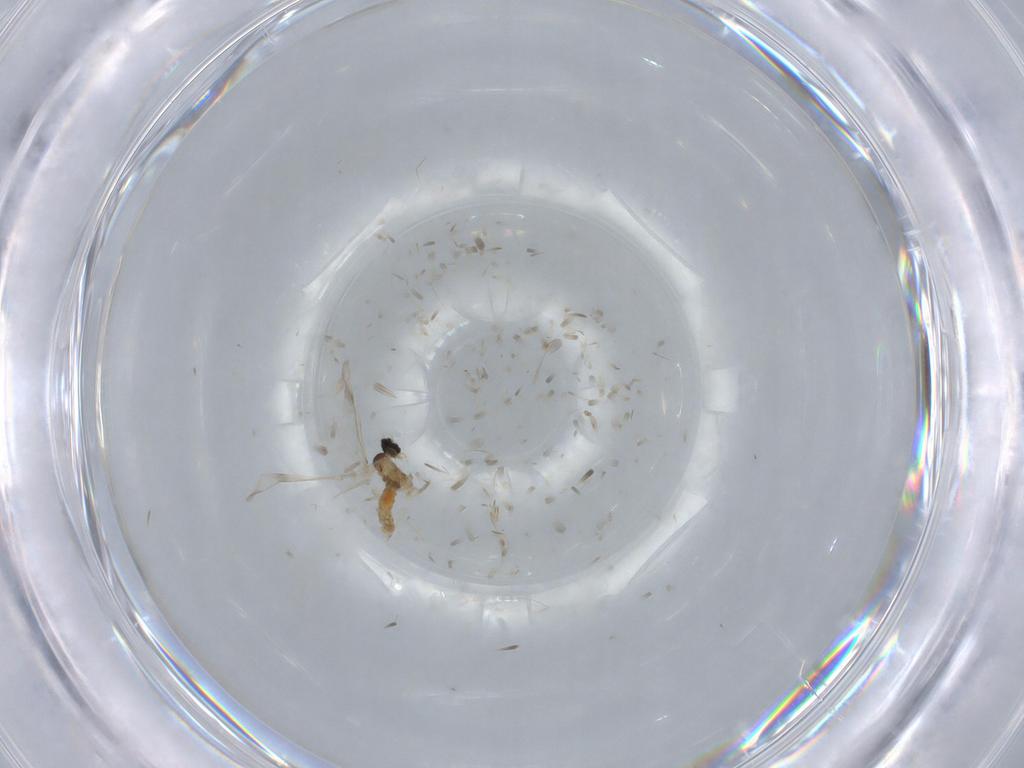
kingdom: Animalia
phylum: Arthropoda
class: Insecta
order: Diptera
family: Cecidomyiidae
